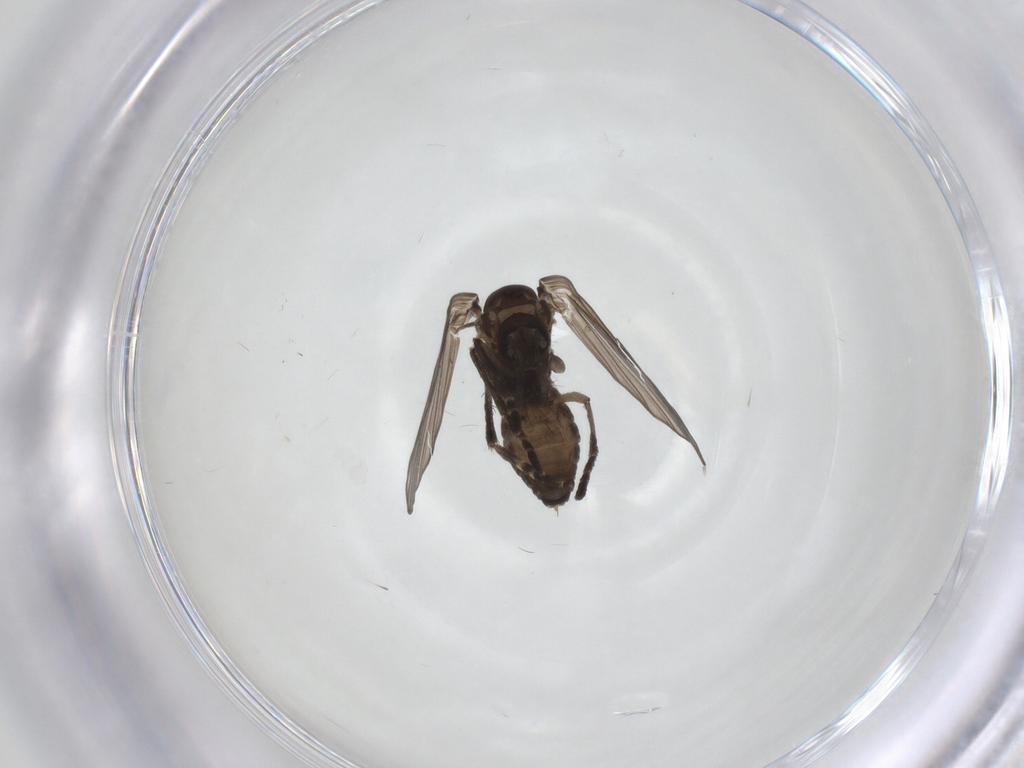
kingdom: Animalia
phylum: Arthropoda
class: Insecta
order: Diptera
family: Psychodidae
